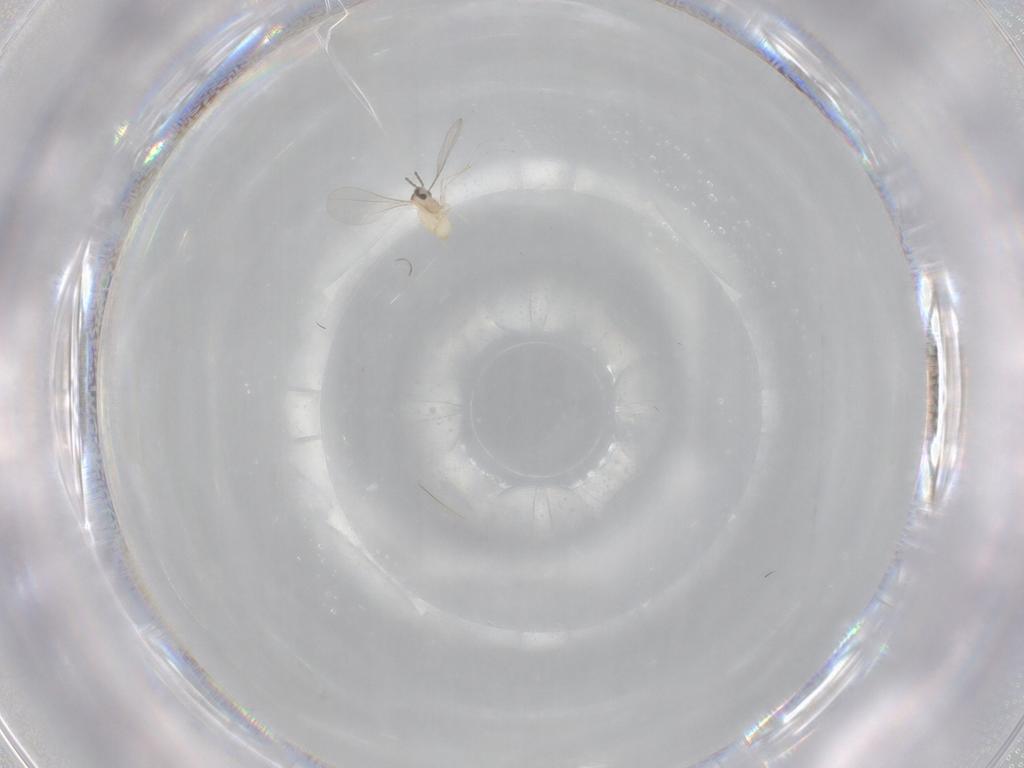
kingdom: Animalia
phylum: Arthropoda
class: Insecta
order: Diptera
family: Cecidomyiidae
